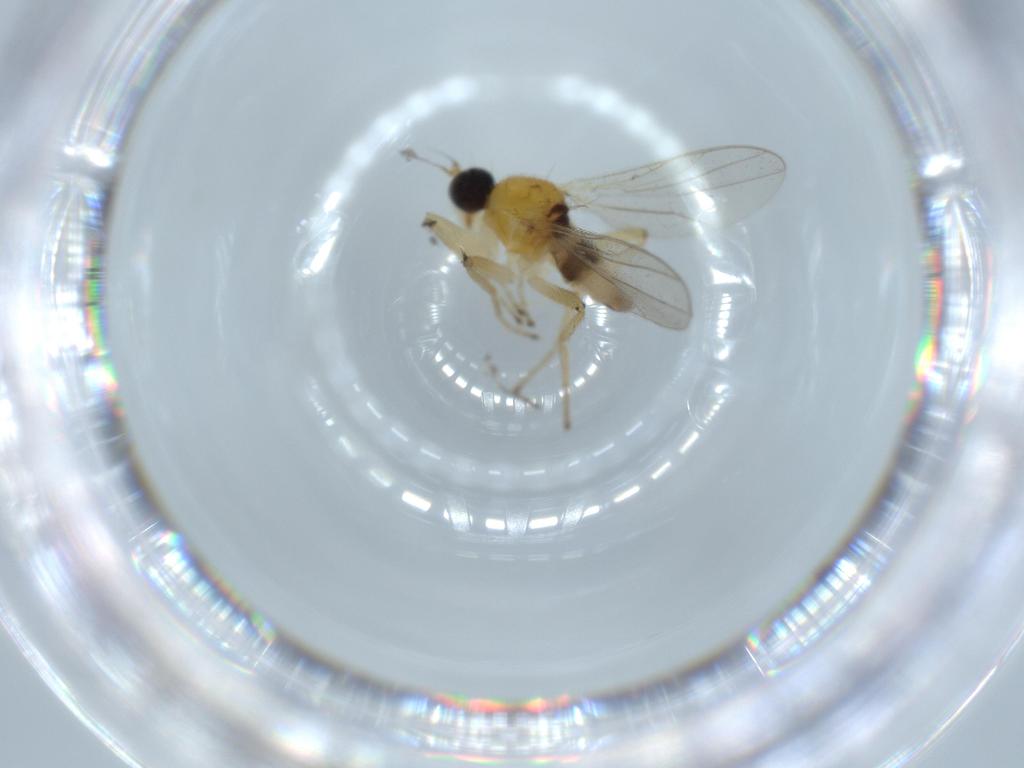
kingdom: Animalia
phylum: Arthropoda
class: Insecta
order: Diptera
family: Hybotidae
